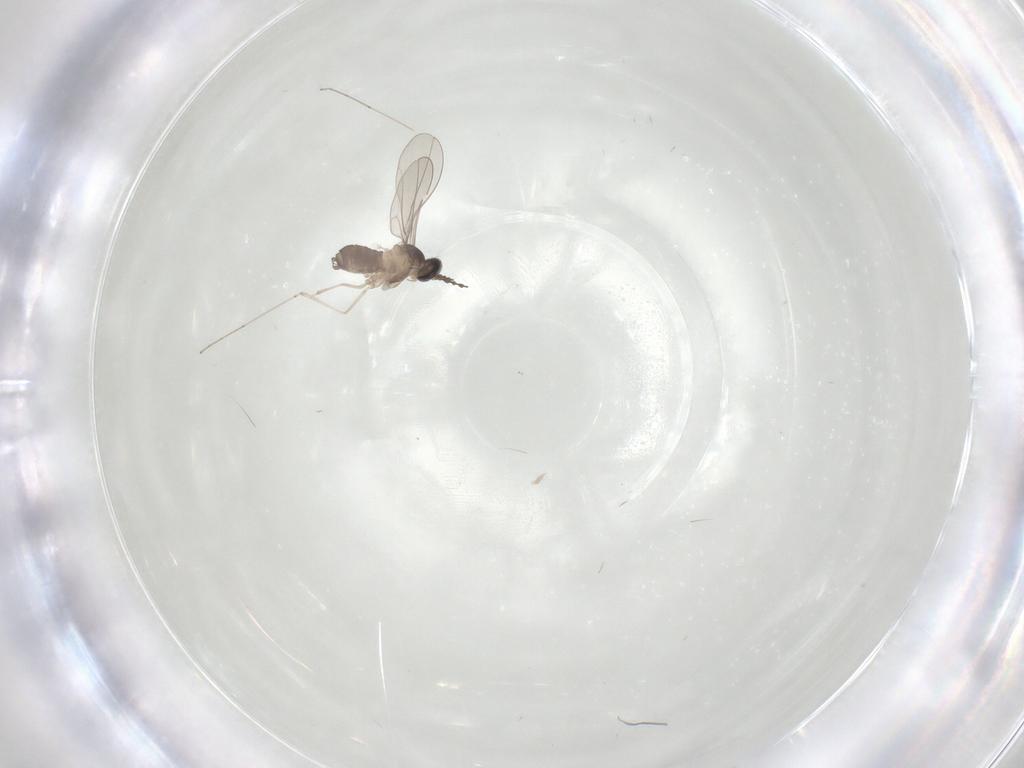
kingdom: Animalia
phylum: Arthropoda
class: Insecta
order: Diptera
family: Cecidomyiidae
